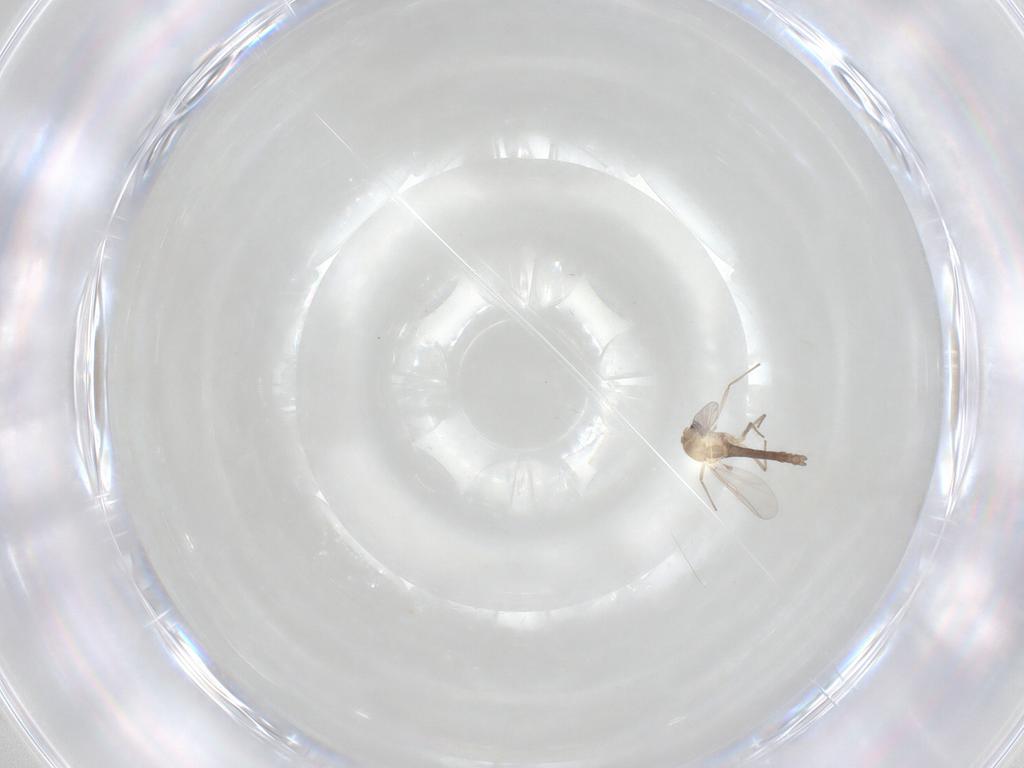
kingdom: Animalia
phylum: Arthropoda
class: Insecta
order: Diptera
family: Chironomidae
